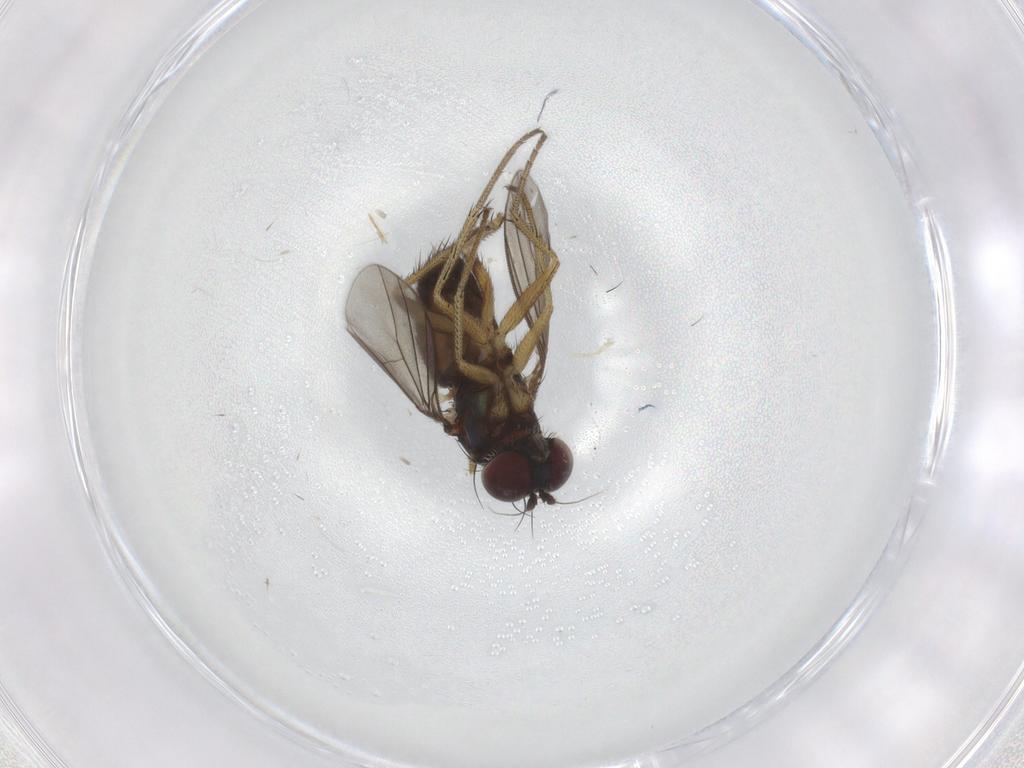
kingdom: Animalia
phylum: Arthropoda
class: Insecta
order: Diptera
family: Dolichopodidae
